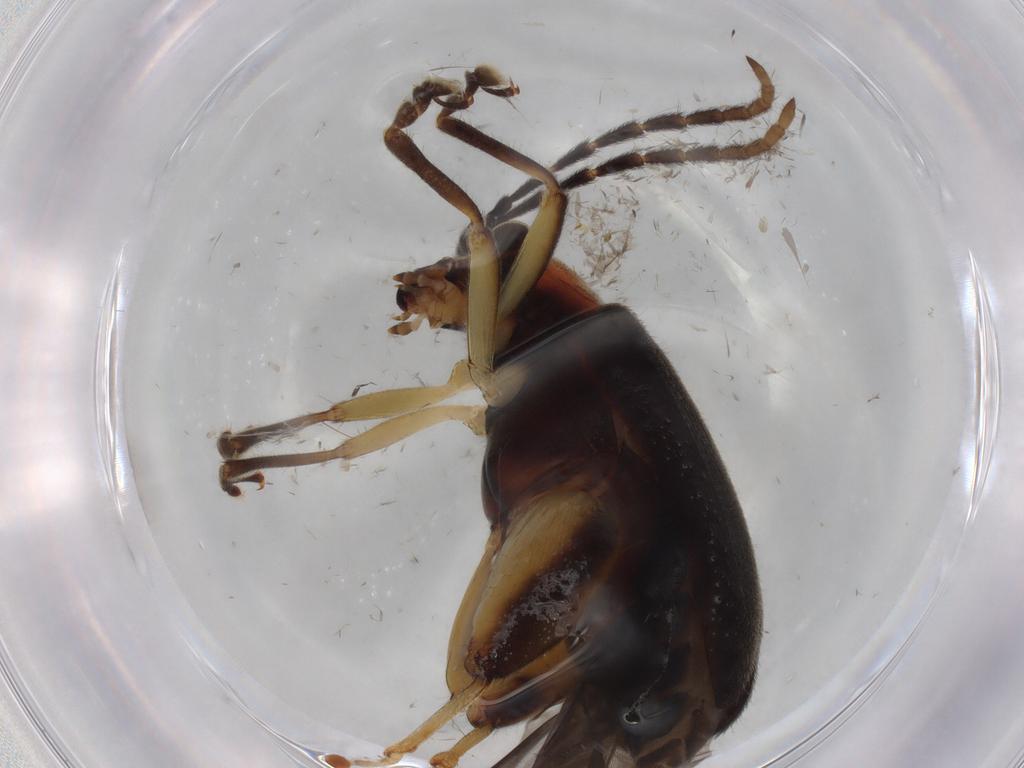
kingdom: Animalia
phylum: Arthropoda
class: Insecta
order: Coleoptera
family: Chrysomelidae
